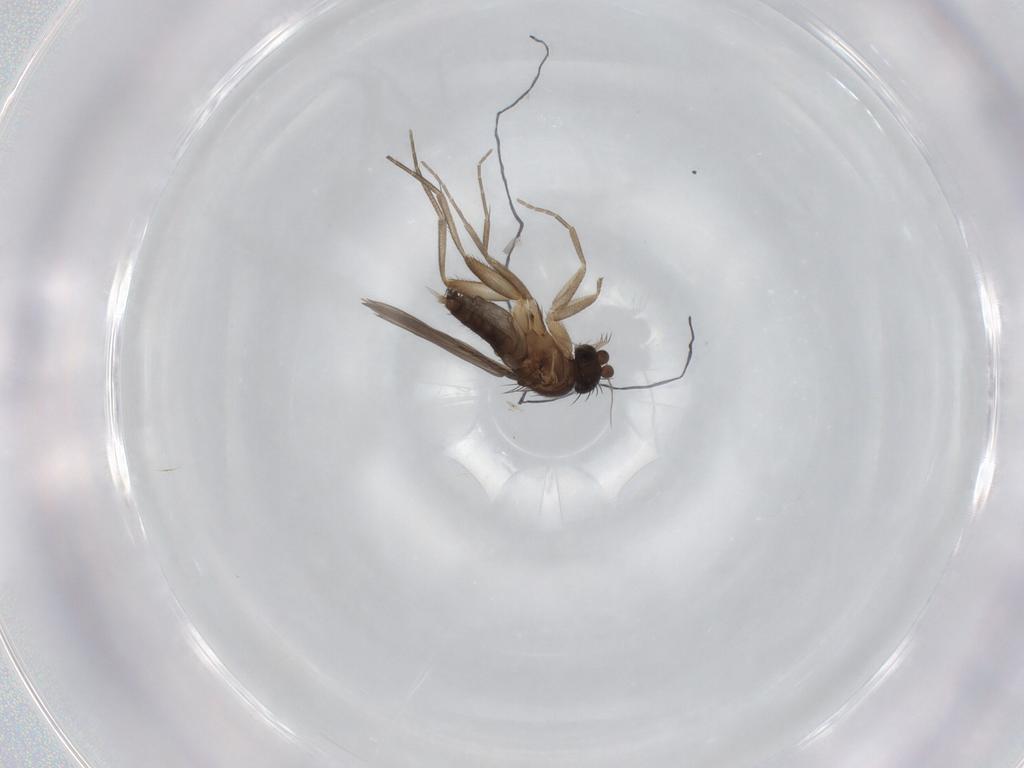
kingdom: Animalia
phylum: Arthropoda
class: Insecta
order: Diptera
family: Phoridae
